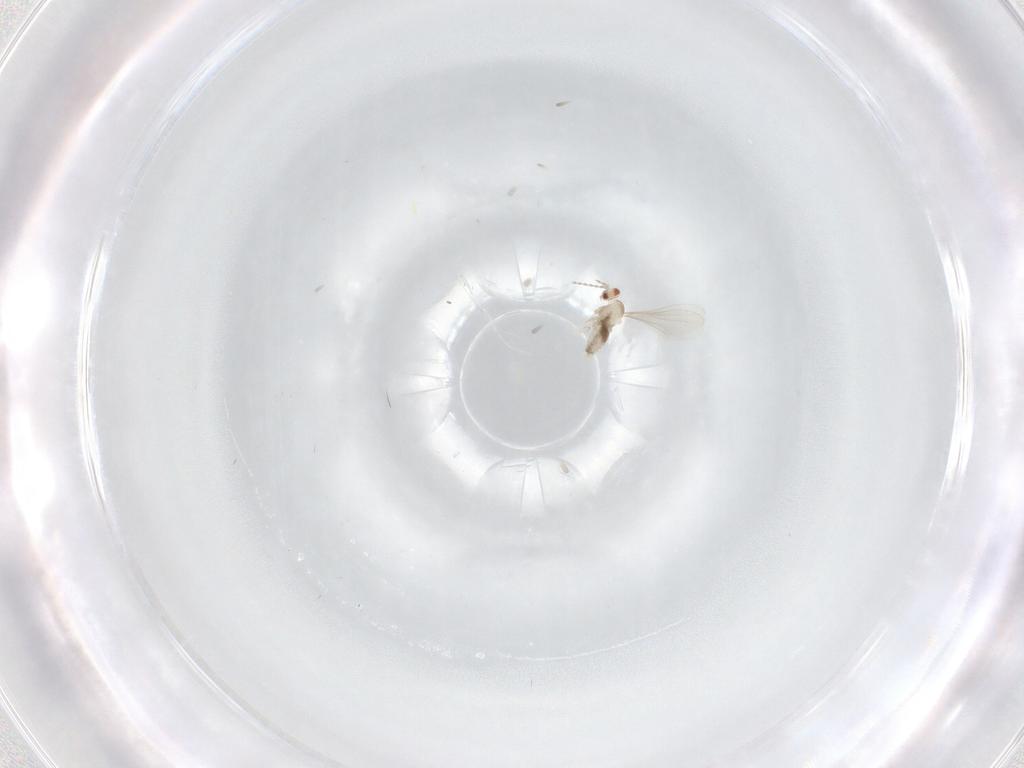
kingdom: Animalia
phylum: Arthropoda
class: Insecta
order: Diptera
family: Cecidomyiidae
